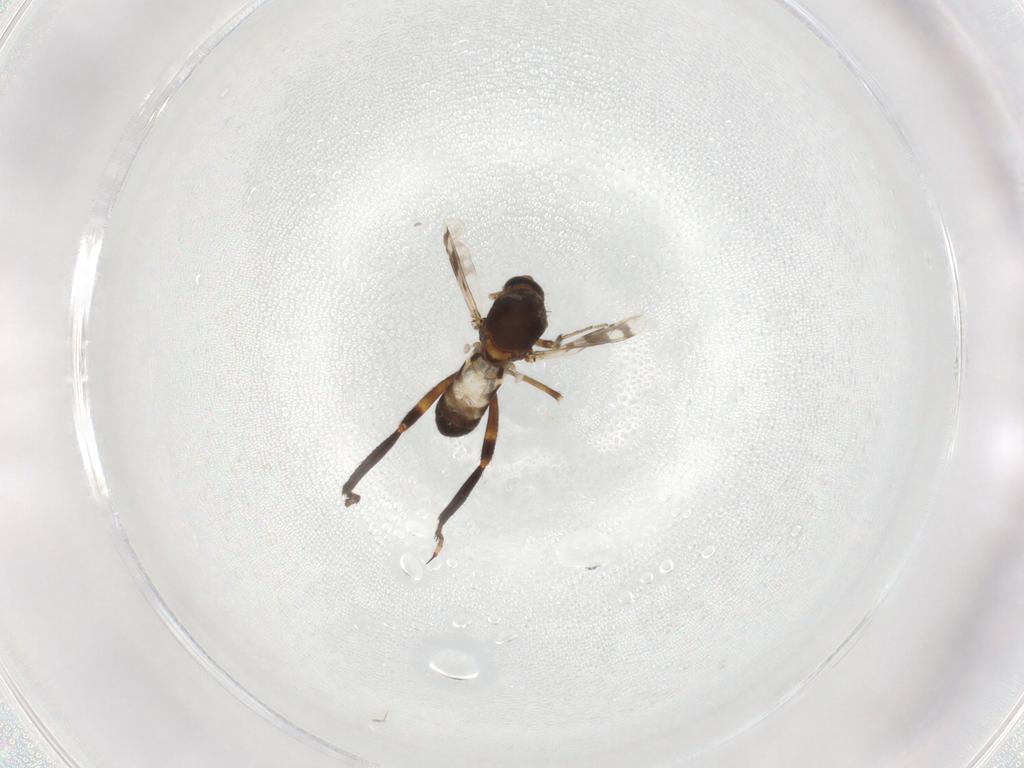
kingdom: Animalia
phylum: Arthropoda
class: Insecta
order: Diptera
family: Ceratopogonidae
